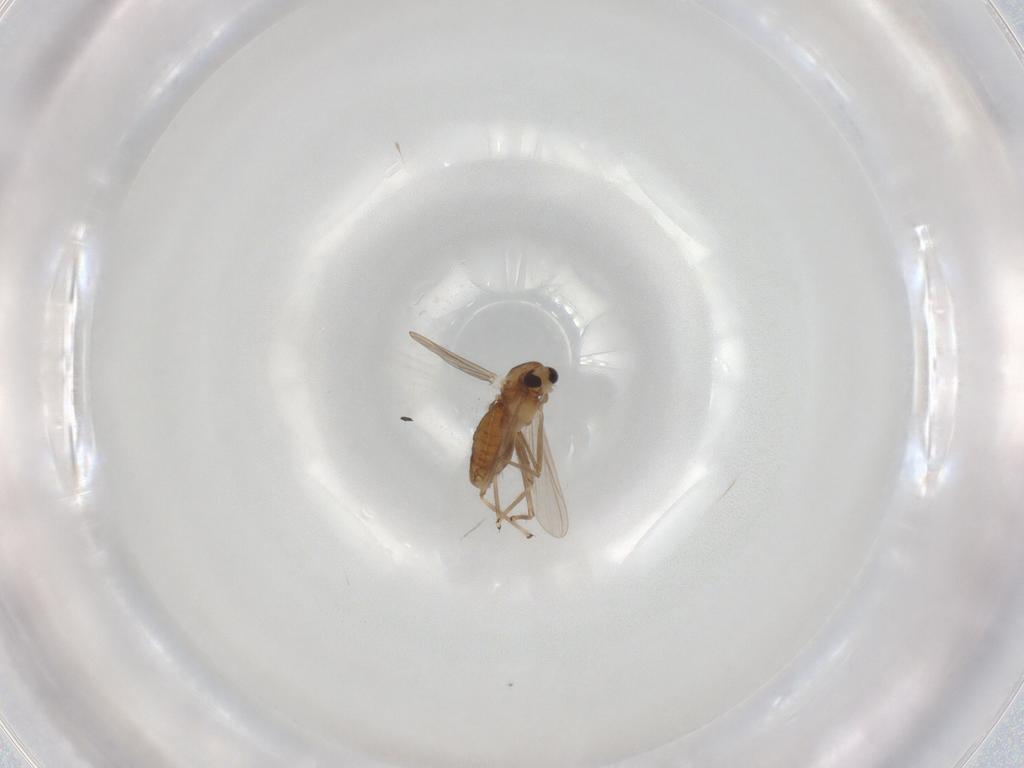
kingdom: Animalia
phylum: Arthropoda
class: Insecta
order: Diptera
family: Chironomidae
